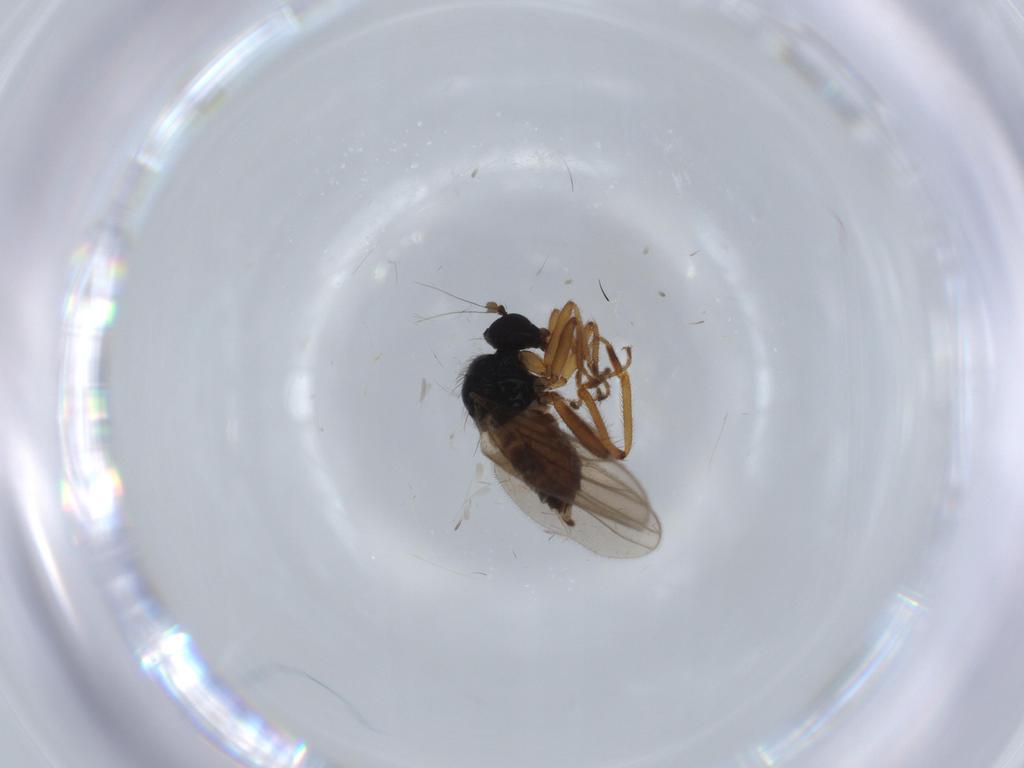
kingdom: Animalia
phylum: Arthropoda
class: Insecta
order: Diptera
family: Hybotidae
